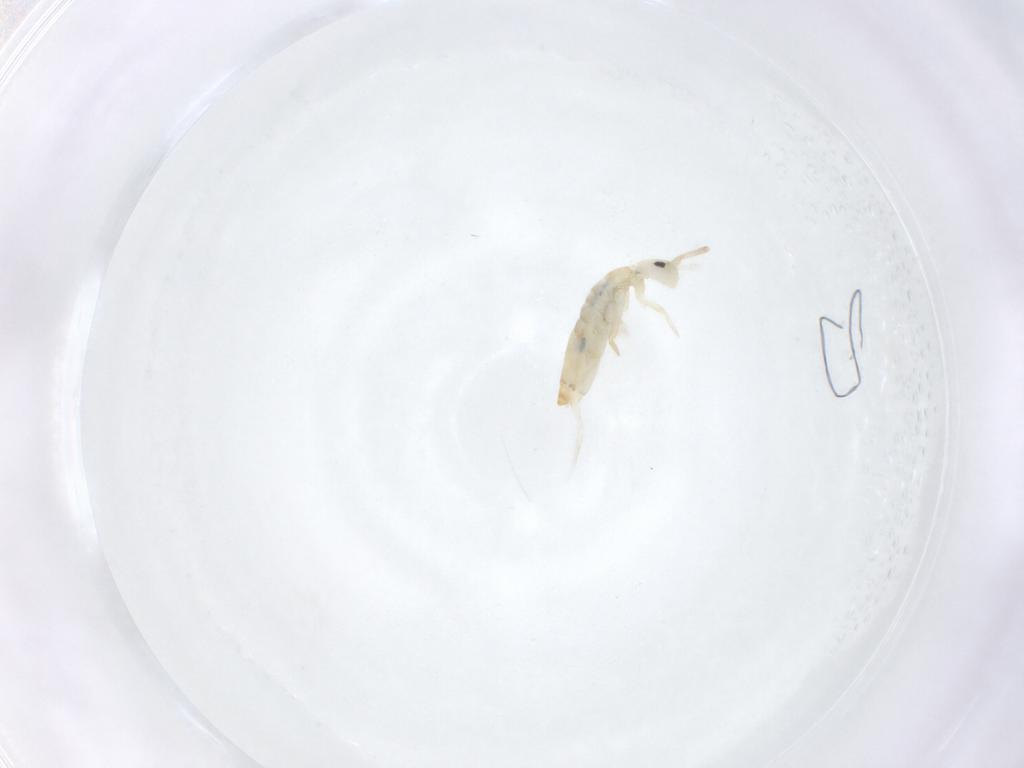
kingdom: Animalia
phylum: Arthropoda
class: Collembola
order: Entomobryomorpha
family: Entomobryidae
